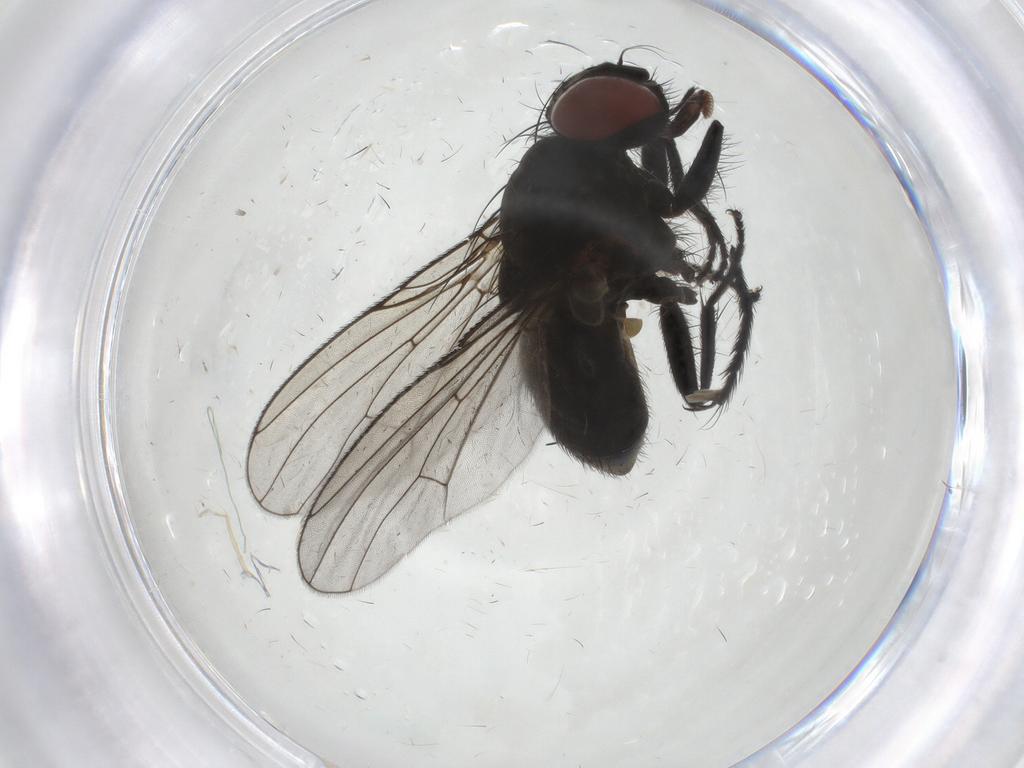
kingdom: Animalia
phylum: Arthropoda
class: Insecta
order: Diptera
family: Muscidae
